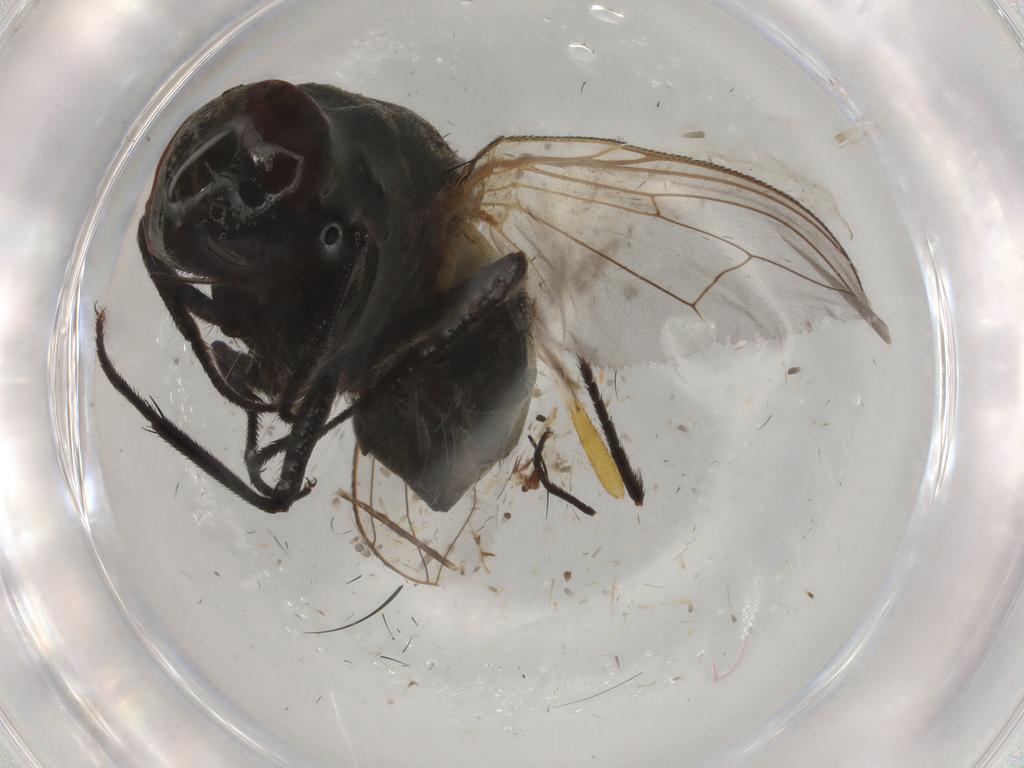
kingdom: Animalia
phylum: Arthropoda
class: Insecta
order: Diptera
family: Muscidae
